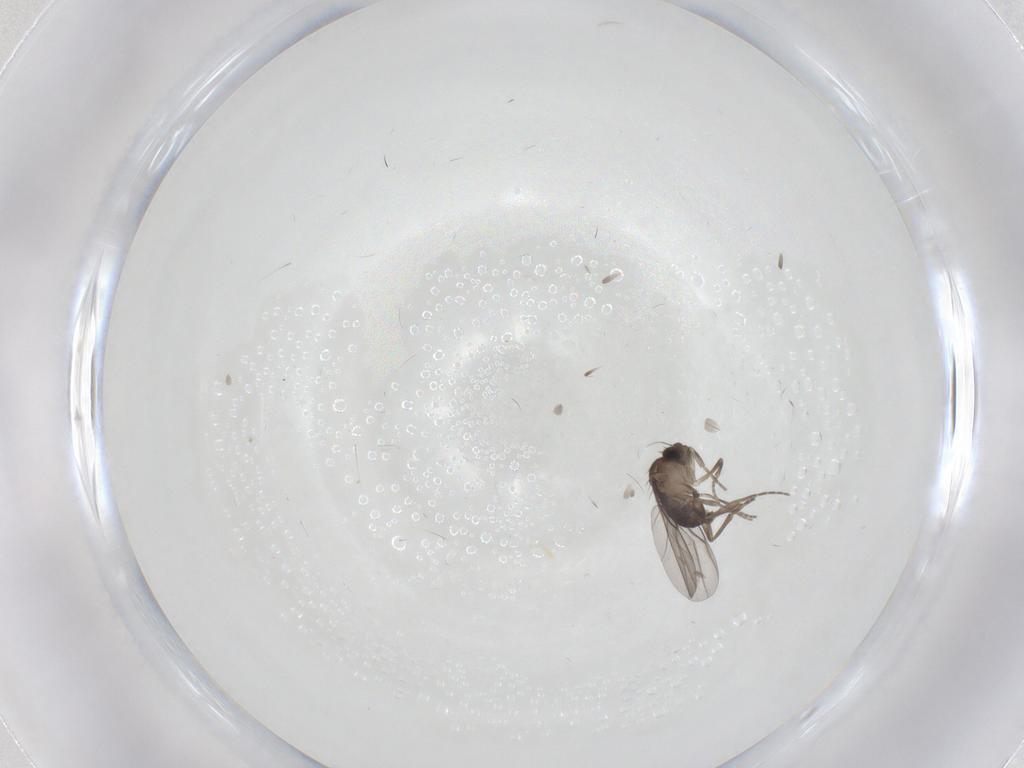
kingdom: Animalia
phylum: Arthropoda
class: Insecta
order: Diptera
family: Phoridae
